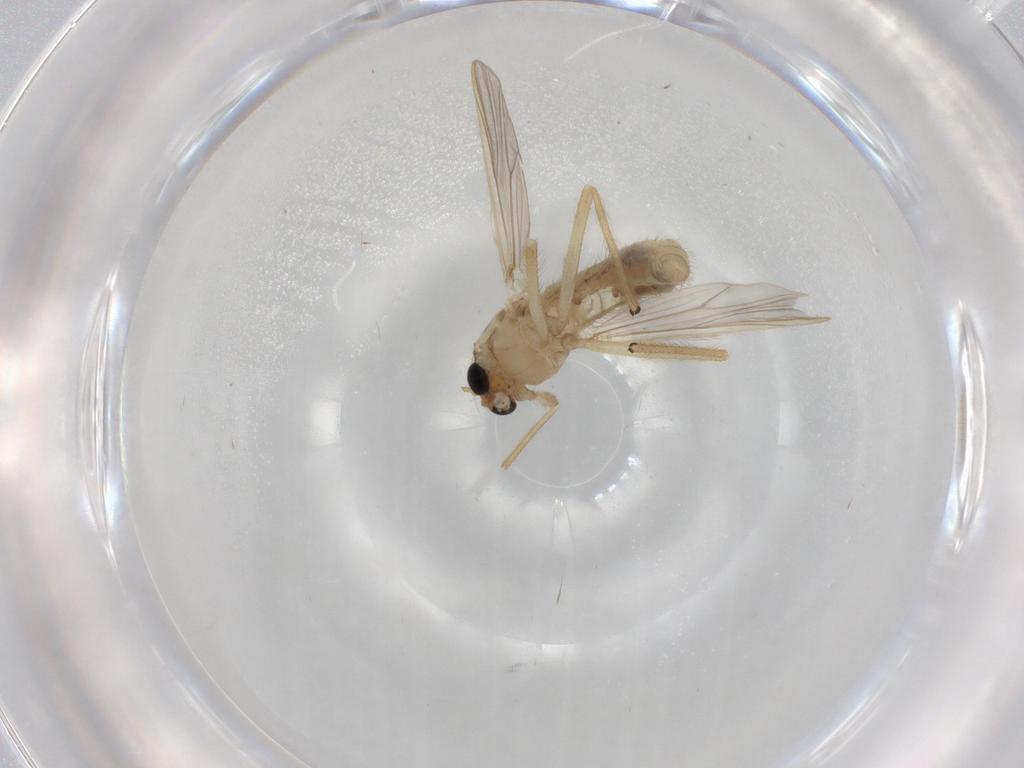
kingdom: Animalia
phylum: Arthropoda
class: Insecta
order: Diptera
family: Chironomidae
